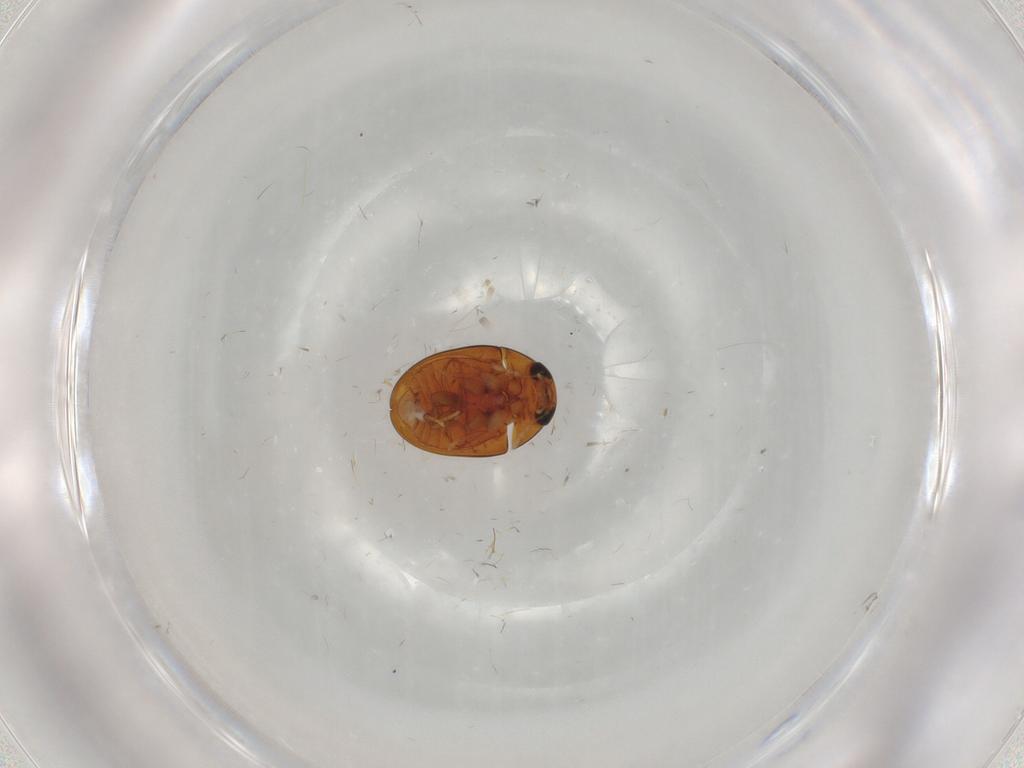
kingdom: Animalia
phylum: Arthropoda
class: Insecta
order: Coleoptera
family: Phalacridae
